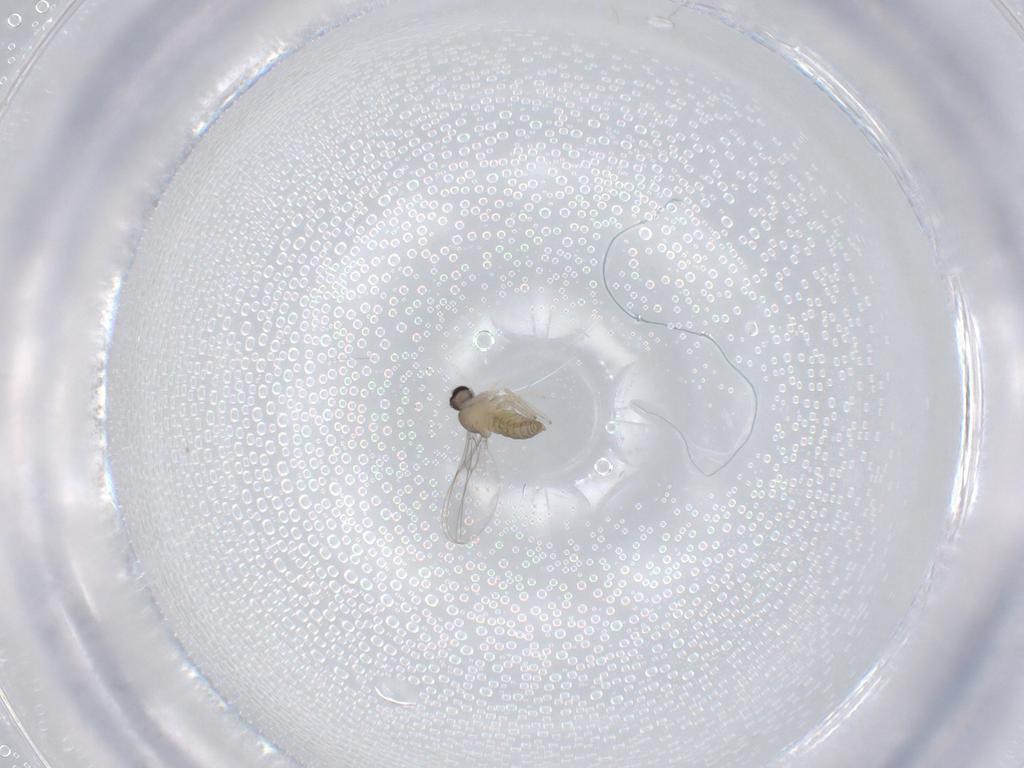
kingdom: Animalia
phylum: Arthropoda
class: Insecta
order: Diptera
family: Cecidomyiidae
